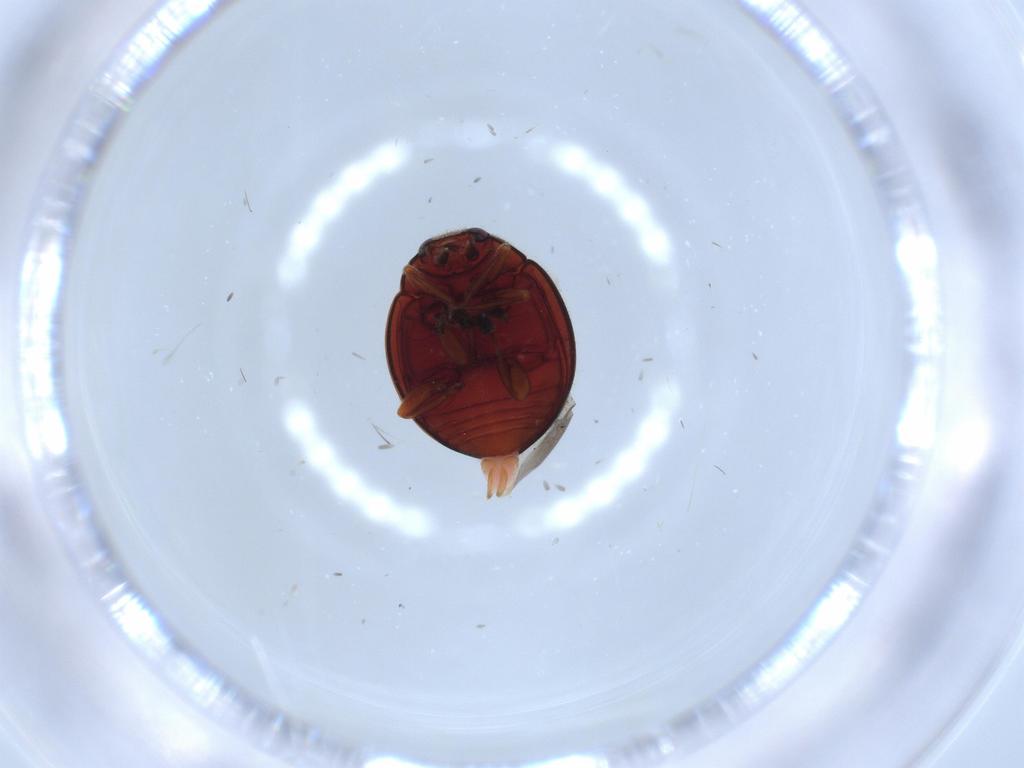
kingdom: Animalia
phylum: Arthropoda
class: Insecta
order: Coleoptera
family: Coccinellidae
